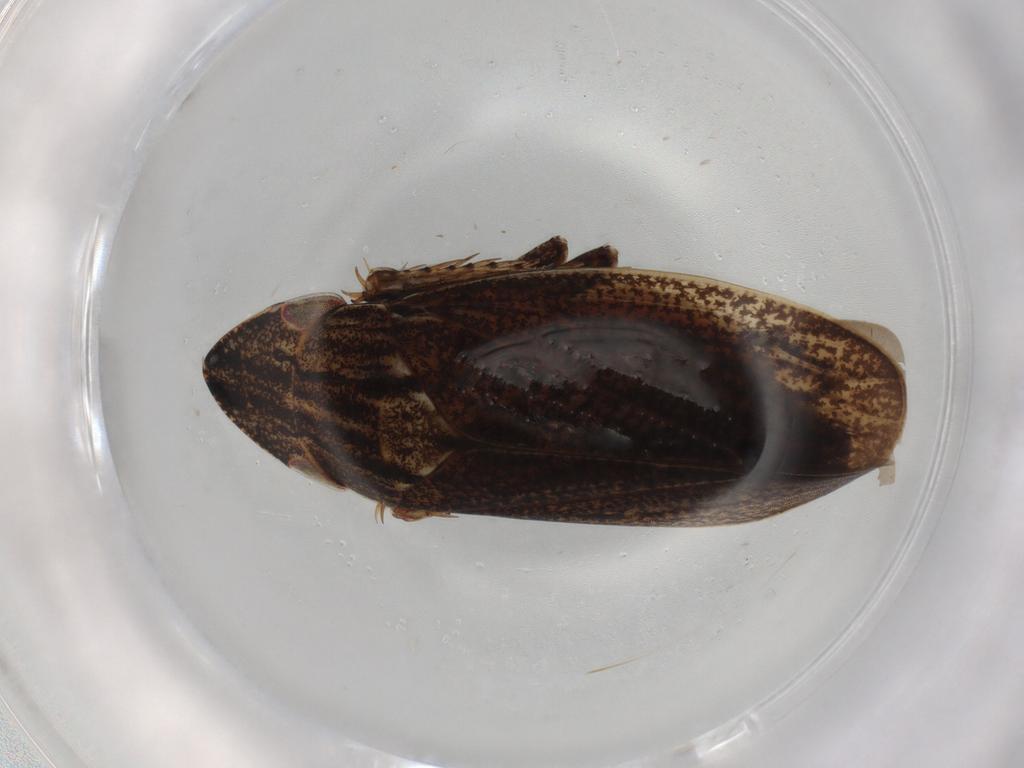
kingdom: Animalia
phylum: Arthropoda
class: Insecta
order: Hemiptera
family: Cicadellidae
